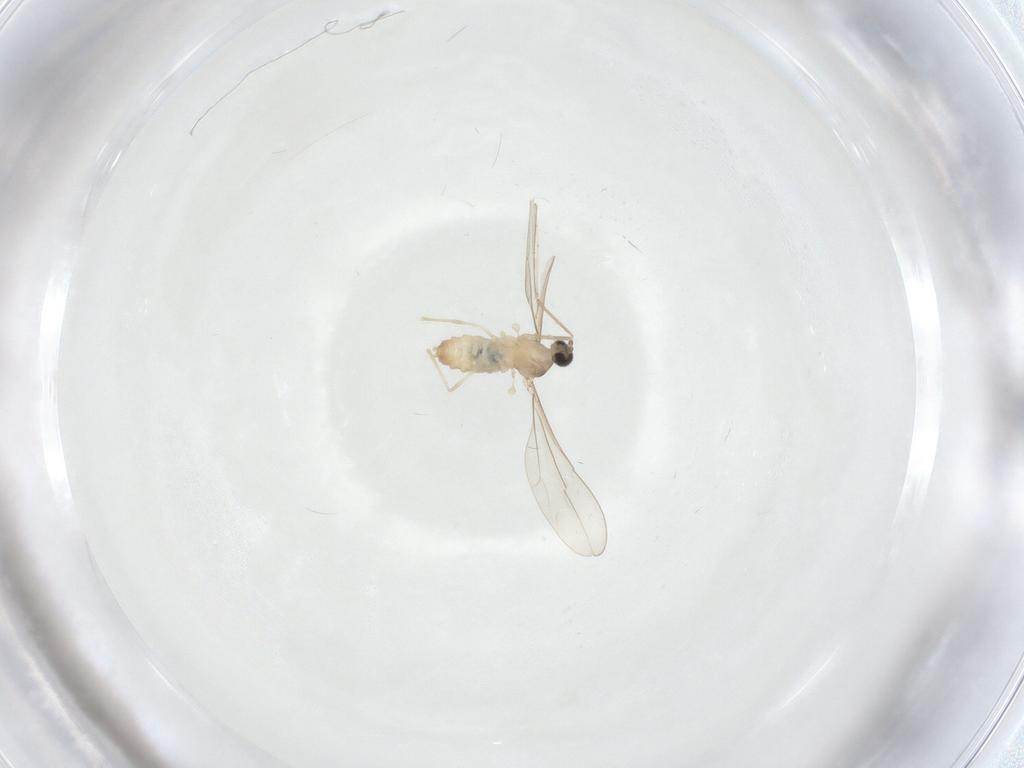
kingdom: Animalia
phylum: Arthropoda
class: Insecta
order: Diptera
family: Cecidomyiidae
